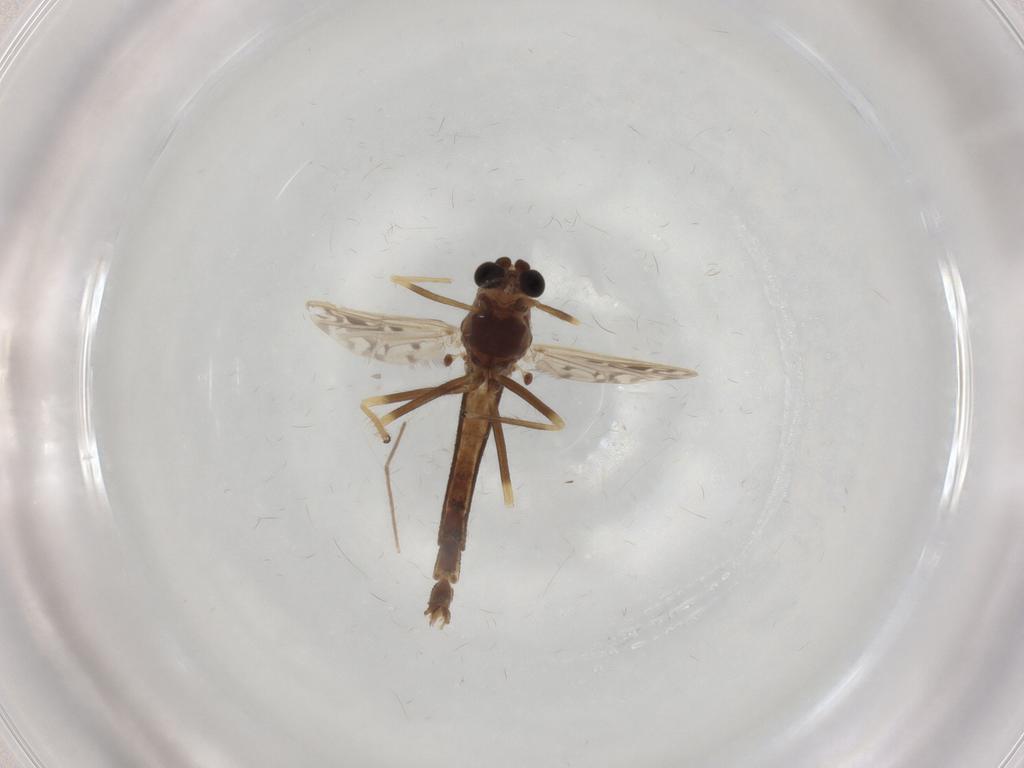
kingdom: Animalia
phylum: Arthropoda
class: Insecta
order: Diptera
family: Chironomidae
